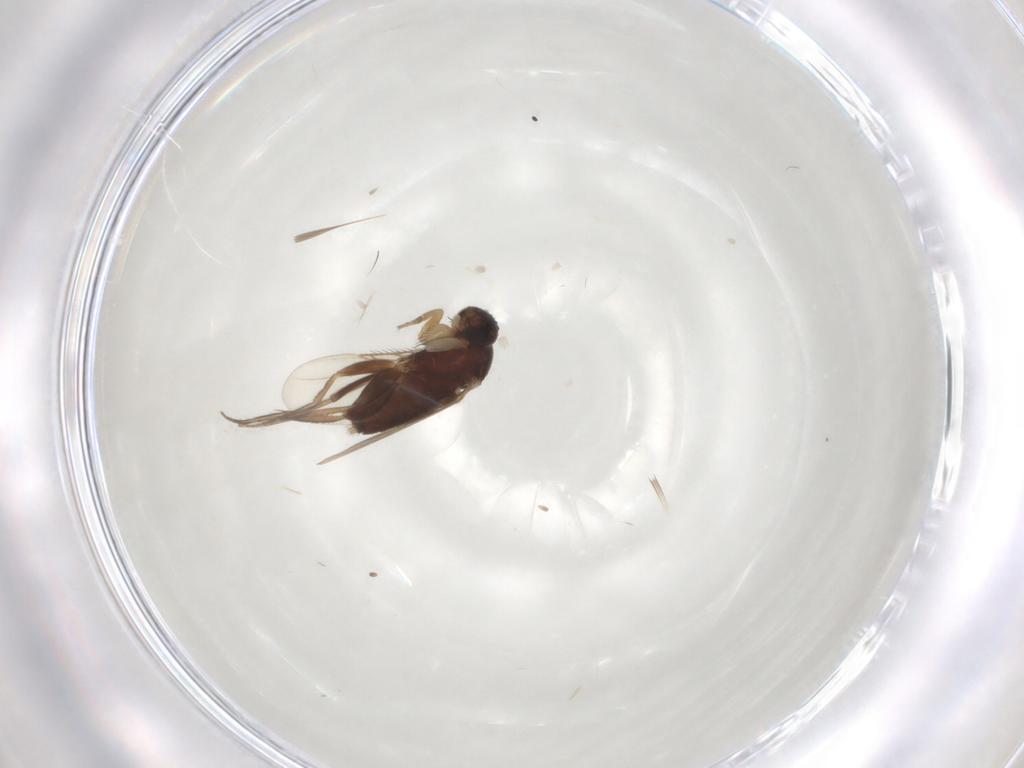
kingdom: Animalia
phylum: Arthropoda
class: Insecta
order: Diptera
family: Phoridae
